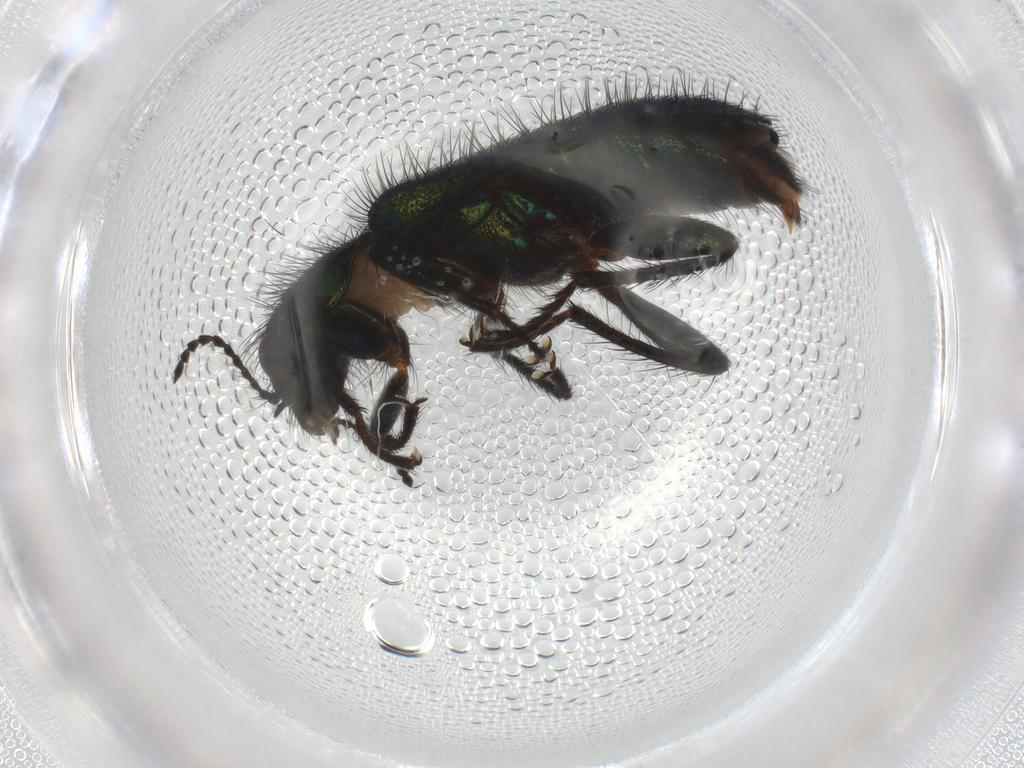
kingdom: Animalia
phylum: Arthropoda
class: Insecta
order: Coleoptera
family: Melyridae
